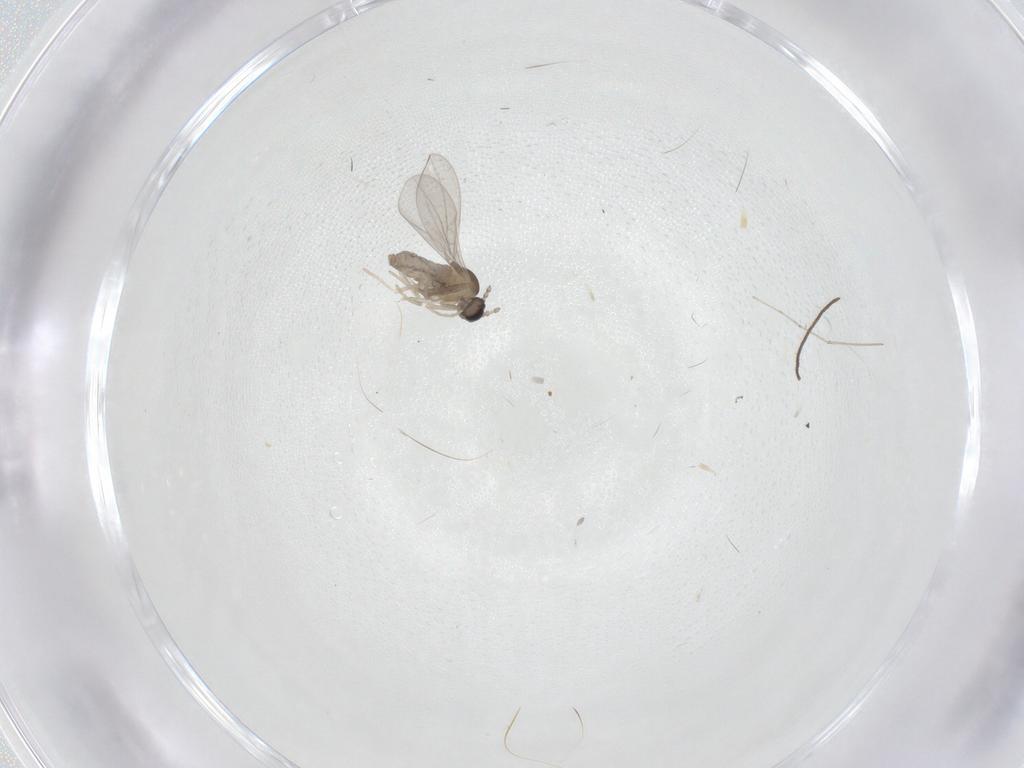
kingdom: Animalia
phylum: Arthropoda
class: Insecta
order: Diptera
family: Limoniidae
